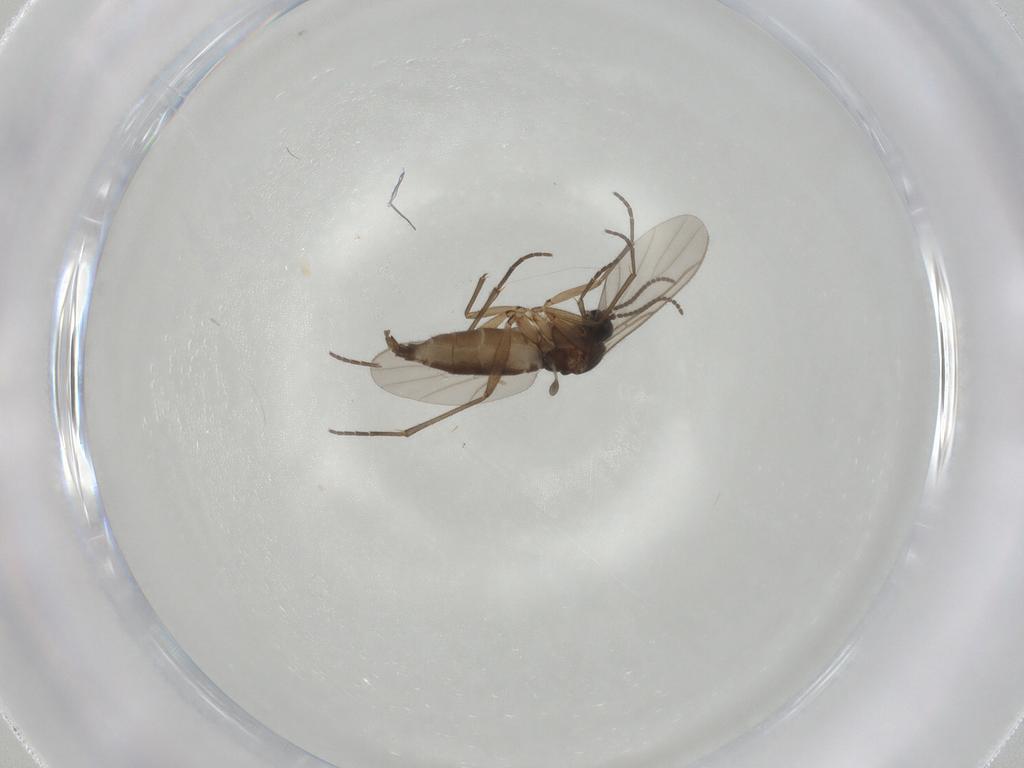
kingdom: Animalia
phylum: Arthropoda
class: Insecta
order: Diptera
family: Sciaridae
